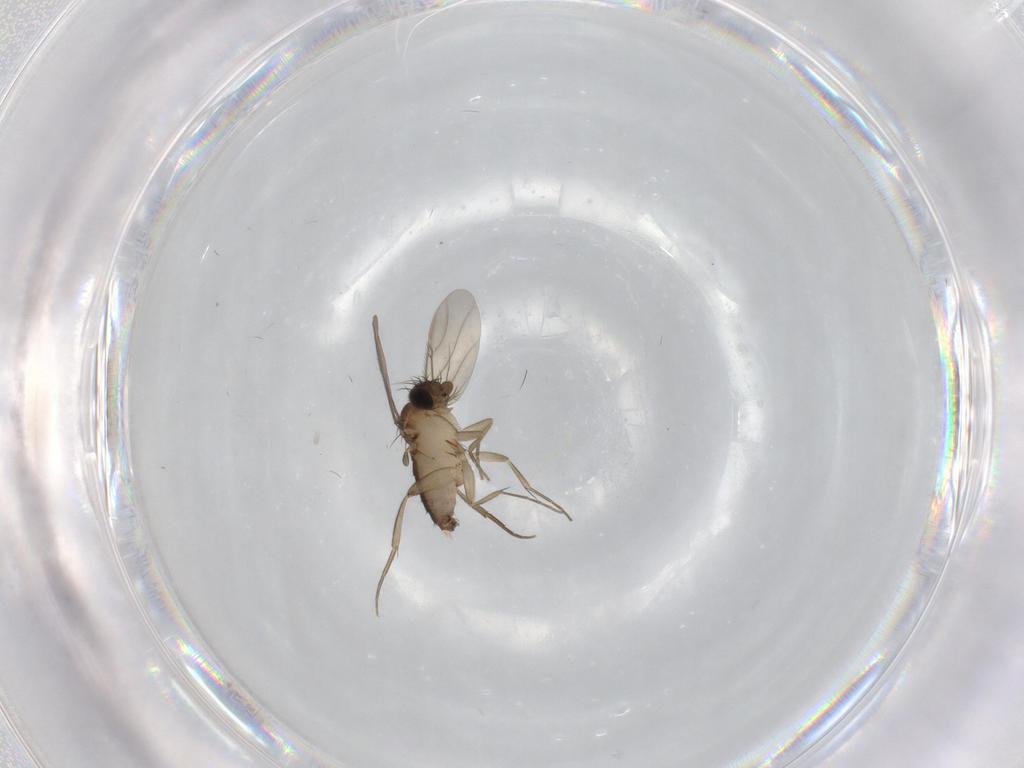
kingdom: Animalia
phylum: Arthropoda
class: Insecta
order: Diptera
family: Phoridae
